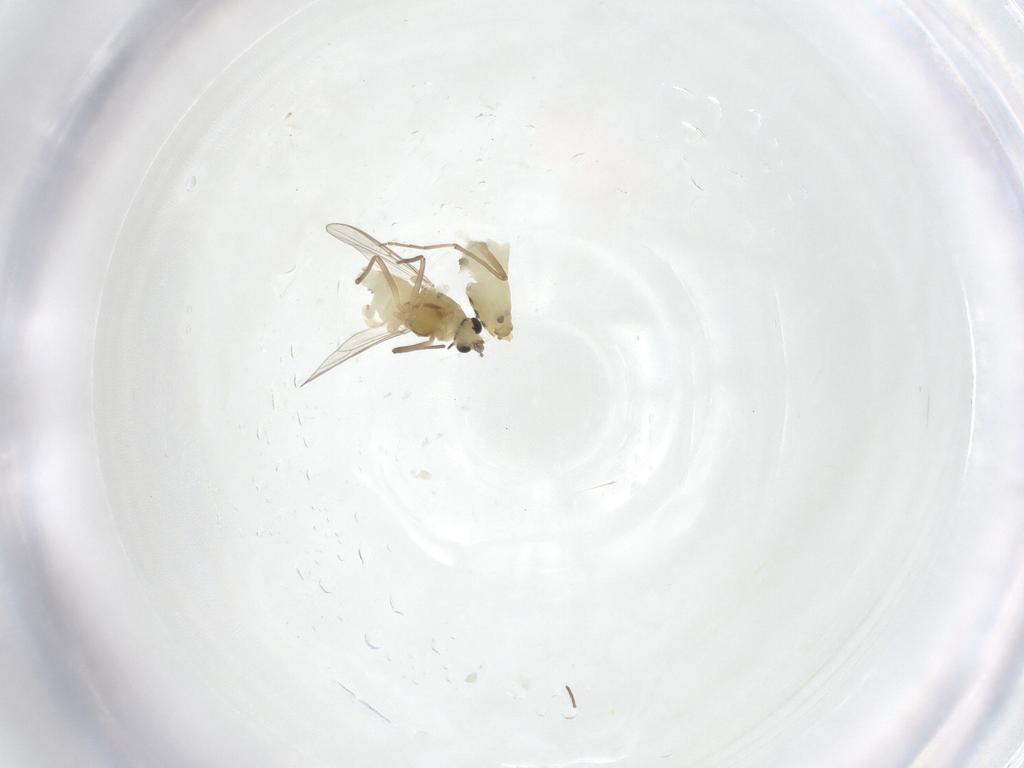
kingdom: Animalia
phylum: Arthropoda
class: Insecta
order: Diptera
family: Chironomidae
